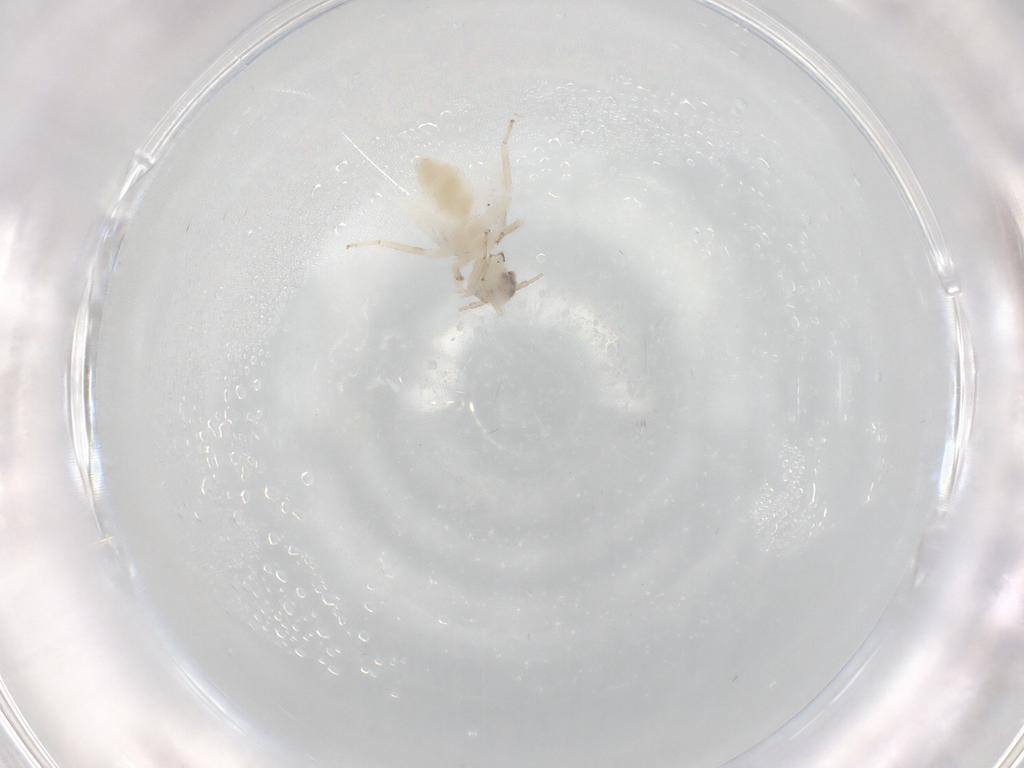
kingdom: Animalia
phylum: Arthropoda
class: Insecta
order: Psocodea
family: Lepidopsocidae
